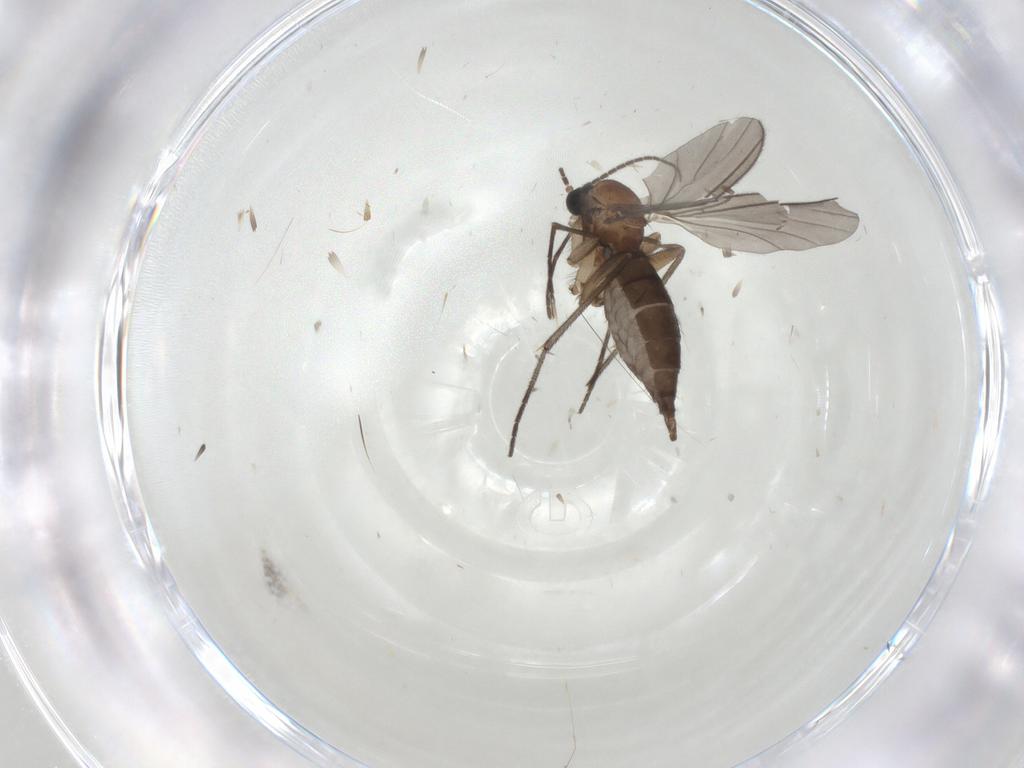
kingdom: Animalia
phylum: Arthropoda
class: Insecta
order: Diptera
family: Sciaridae
